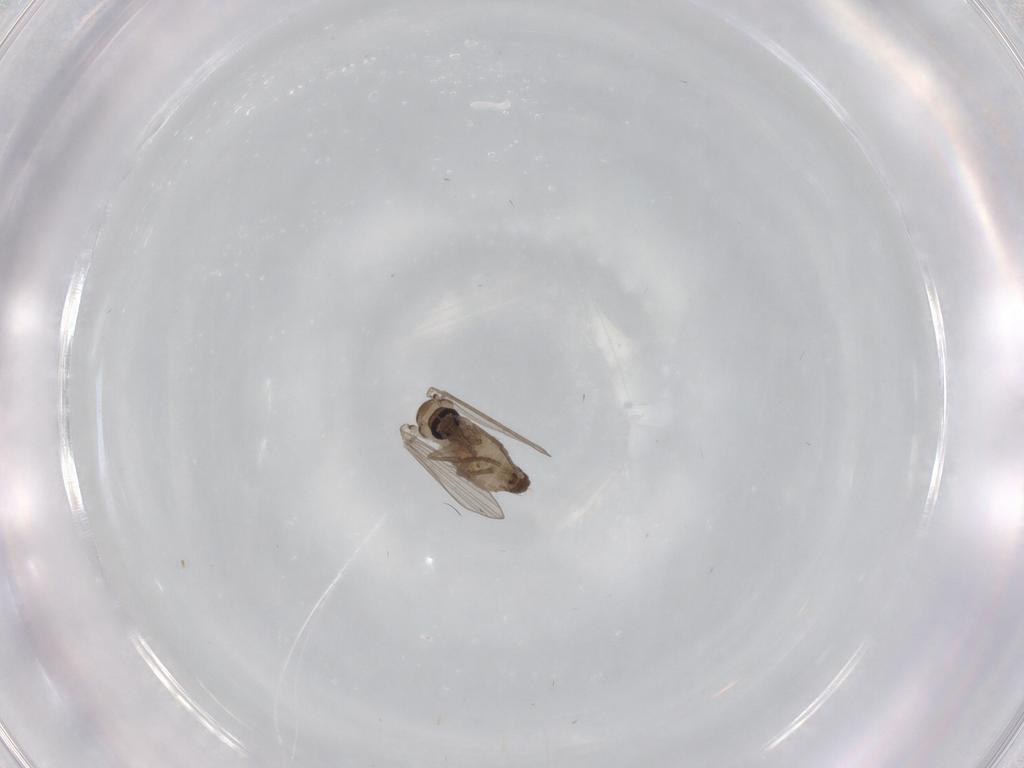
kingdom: Animalia
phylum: Arthropoda
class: Insecta
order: Diptera
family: Psychodidae
